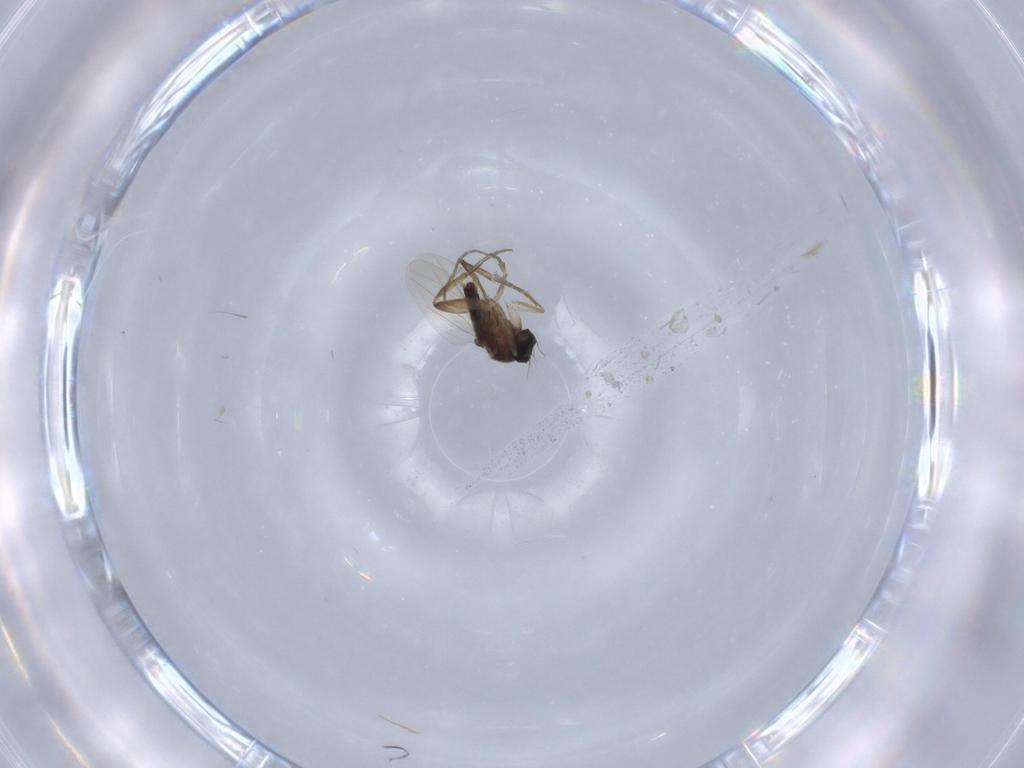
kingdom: Animalia
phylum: Arthropoda
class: Insecta
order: Diptera
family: Phoridae
